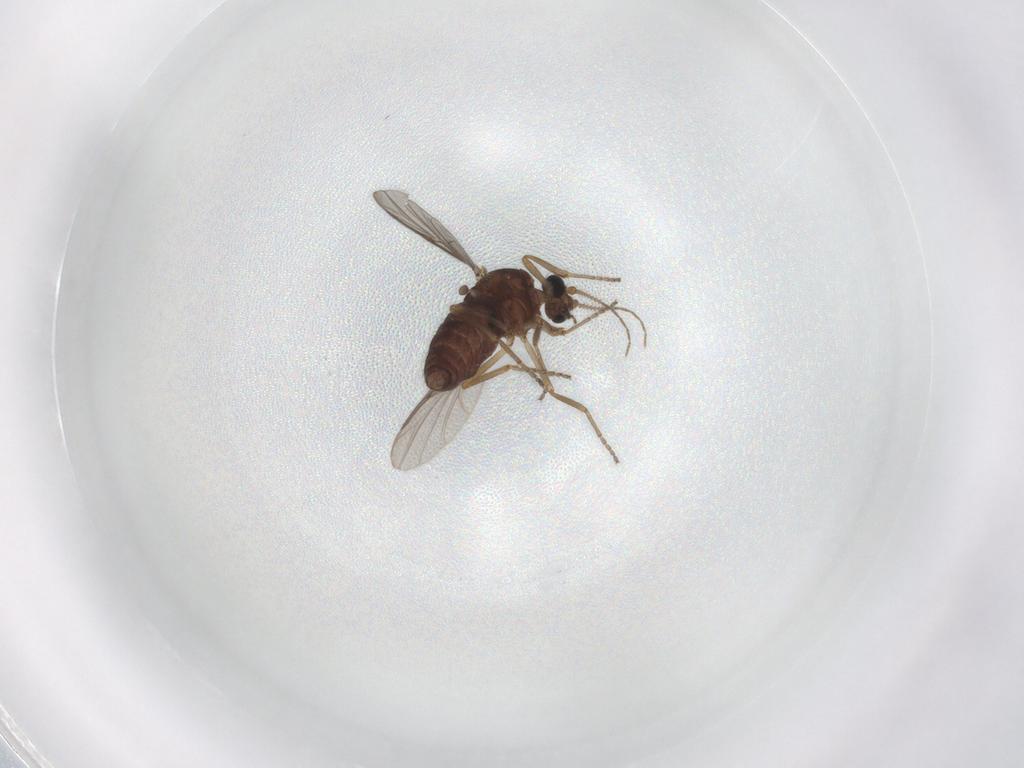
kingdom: Animalia
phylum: Arthropoda
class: Insecta
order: Diptera
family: Ceratopogonidae
